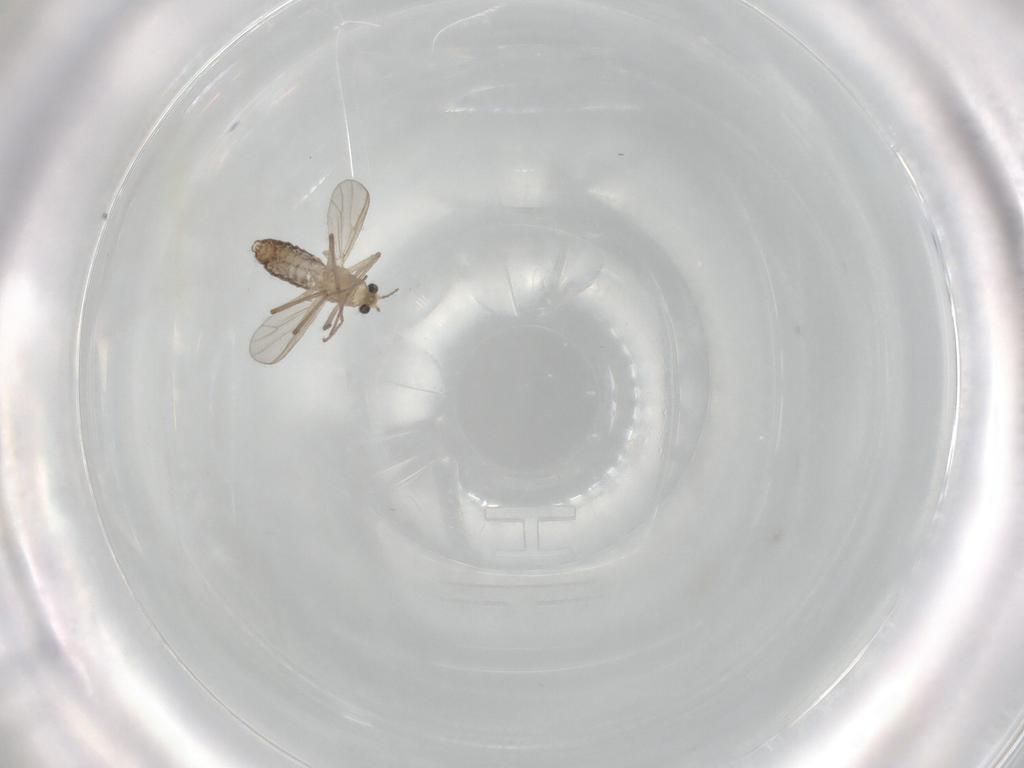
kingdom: Animalia
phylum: Arthropoda
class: Insecta
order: Diptera
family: Chironomidae
